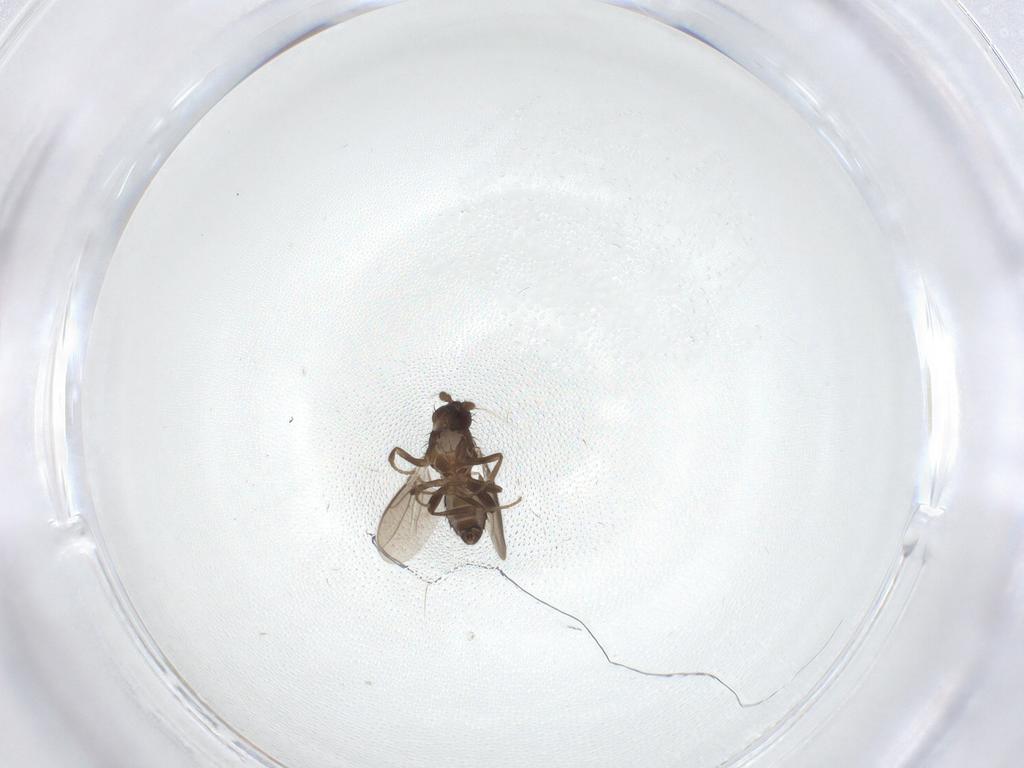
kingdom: Animalia
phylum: Arthropoda
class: Insecta
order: Diptera
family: Sphaeroceridae
